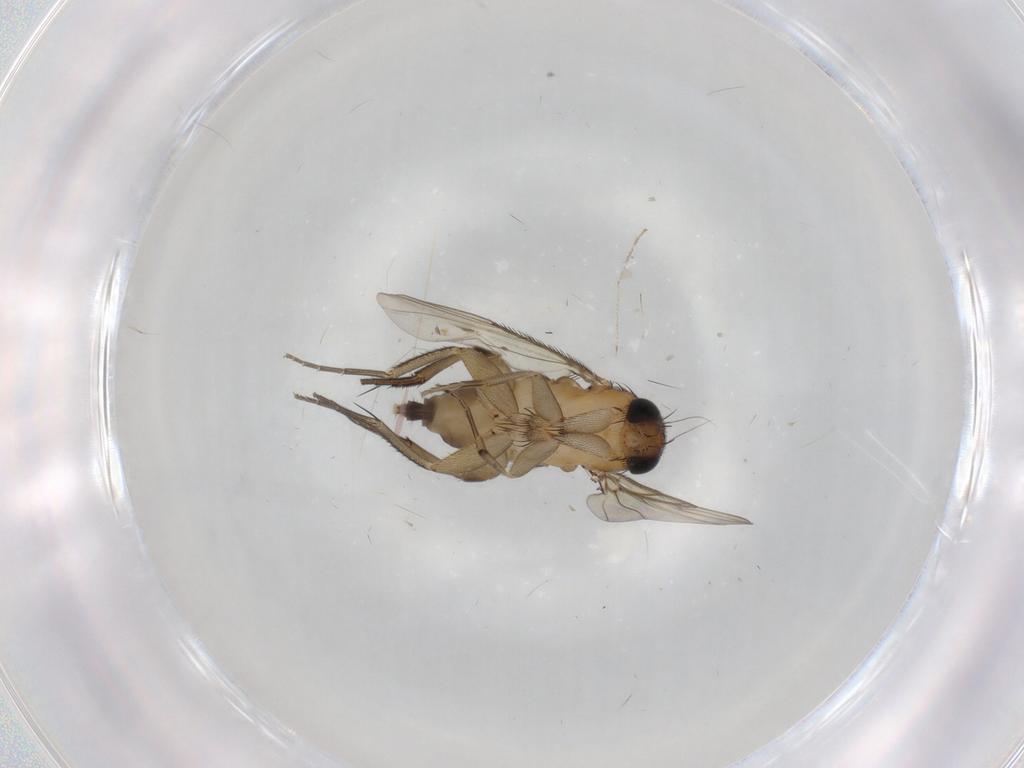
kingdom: Animalia
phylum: Arthropoda
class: Insecta
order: Diptera
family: Phoridae
